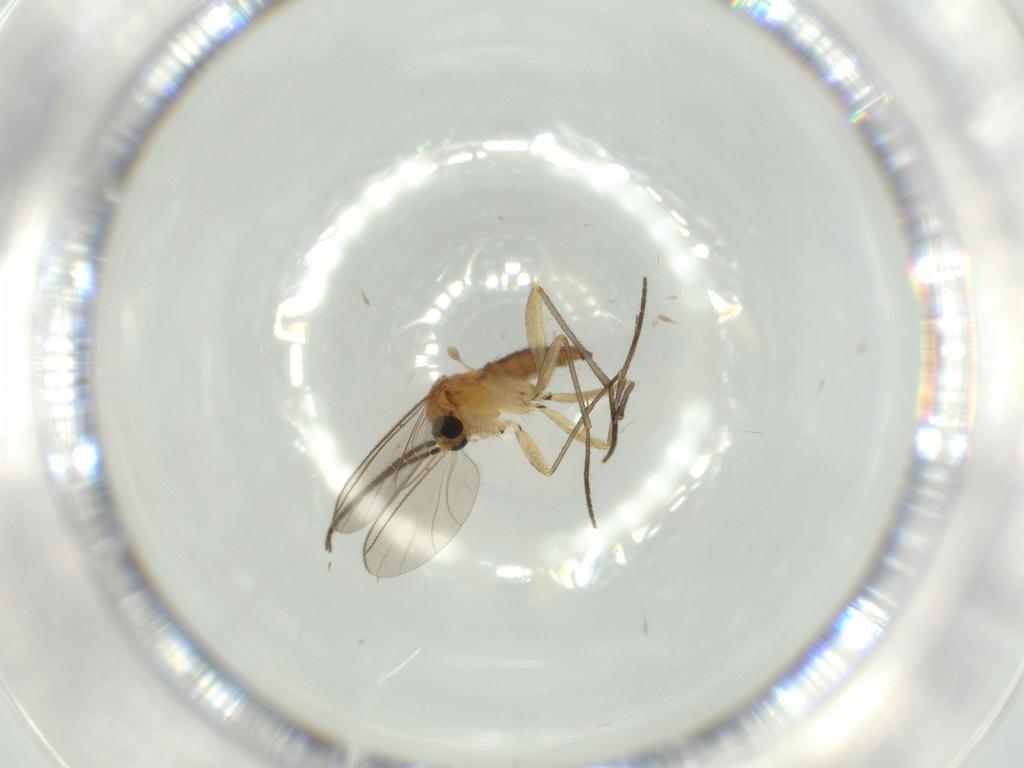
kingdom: Animalia
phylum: Arthropoda
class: Insecta
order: Diptera
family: Sciaridae
